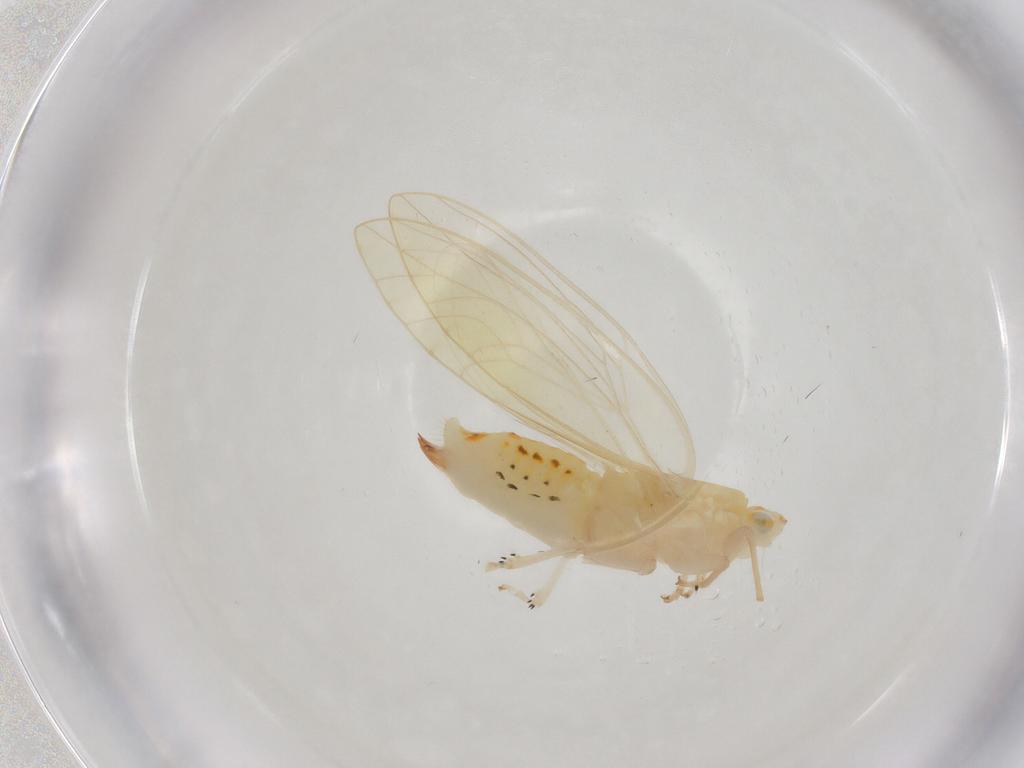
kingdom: Animalia
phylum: Arthropoda
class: Insecta
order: Hemiptera
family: Triozidae
